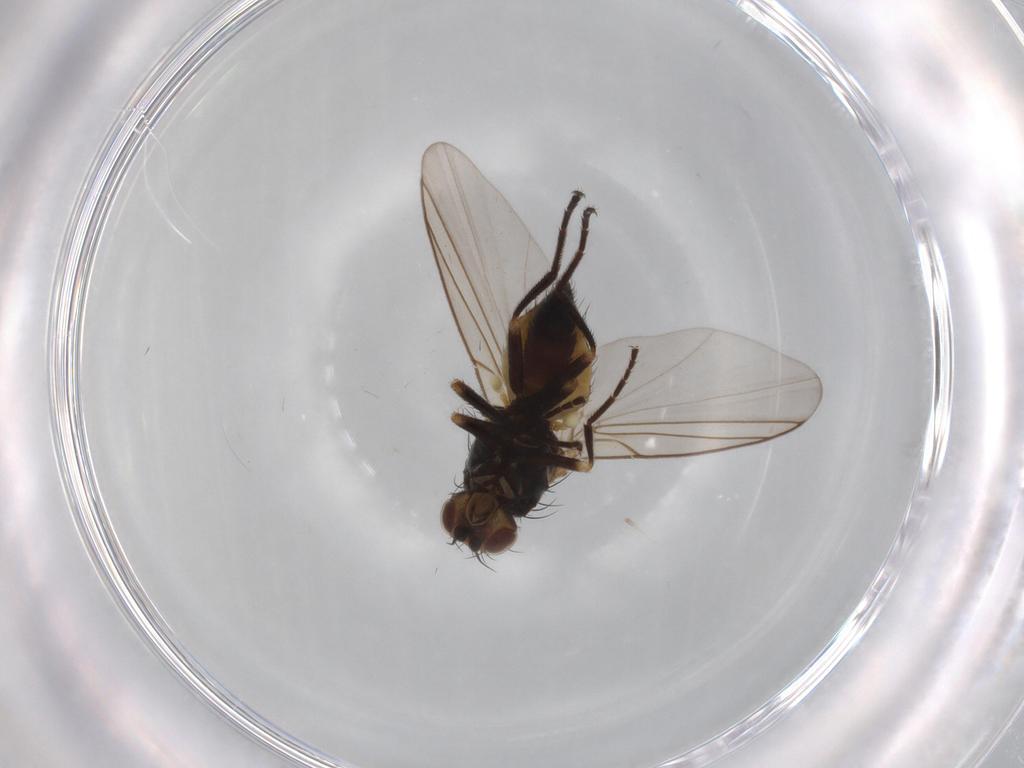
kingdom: Animalia
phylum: Arthropoda
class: Insecta
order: Diptera
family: Agromyzidae
